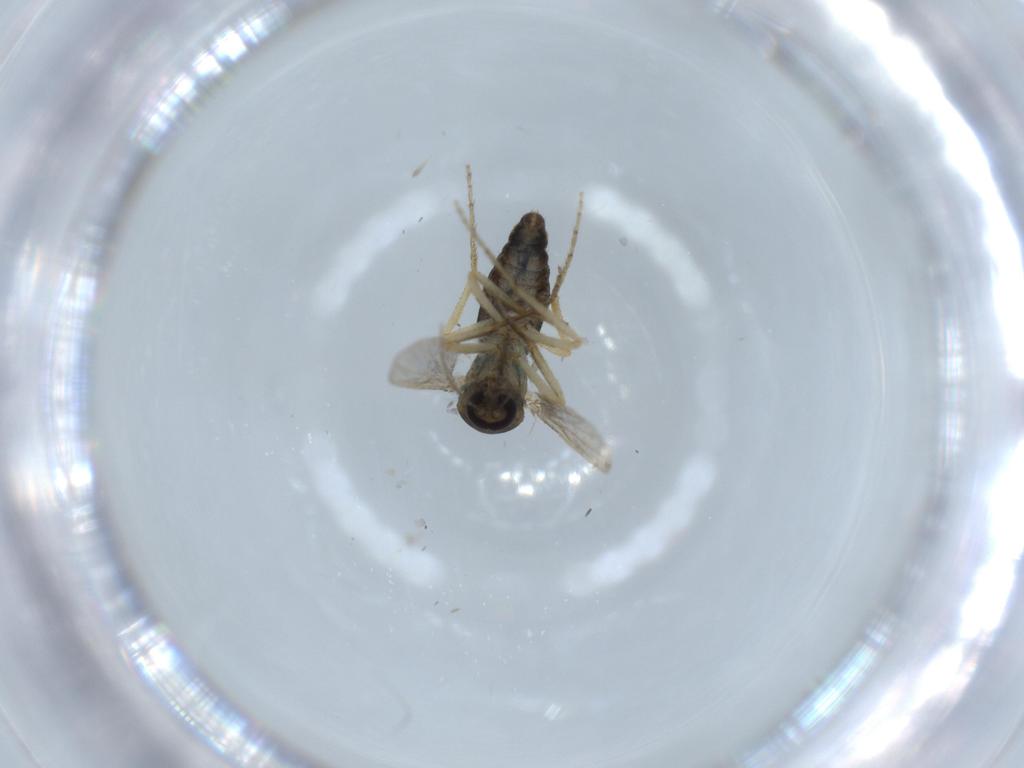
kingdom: Animalia
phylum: Arthropoda
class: Insecta
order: Diptera
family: Ceratopogonidae
